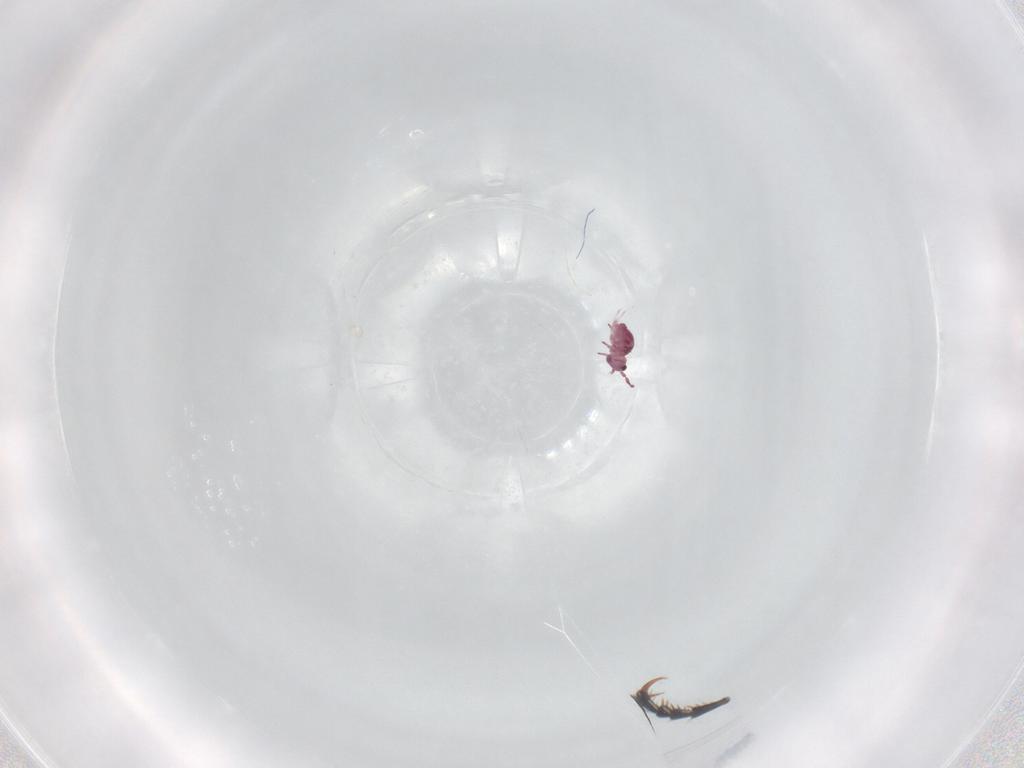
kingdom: Animalia
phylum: Arthropoda
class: Collembola
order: Symphypleona
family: Sminthurididae
